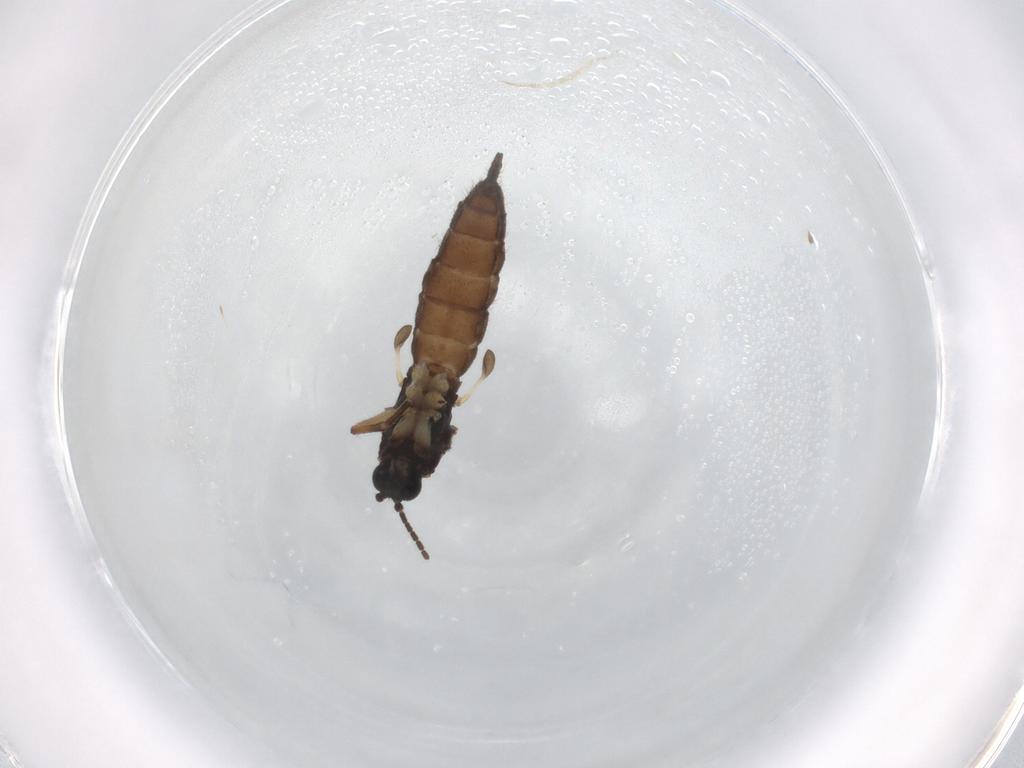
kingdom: Animalia
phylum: Arthropoda
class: Insecta
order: Diptera
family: Sciaridae
